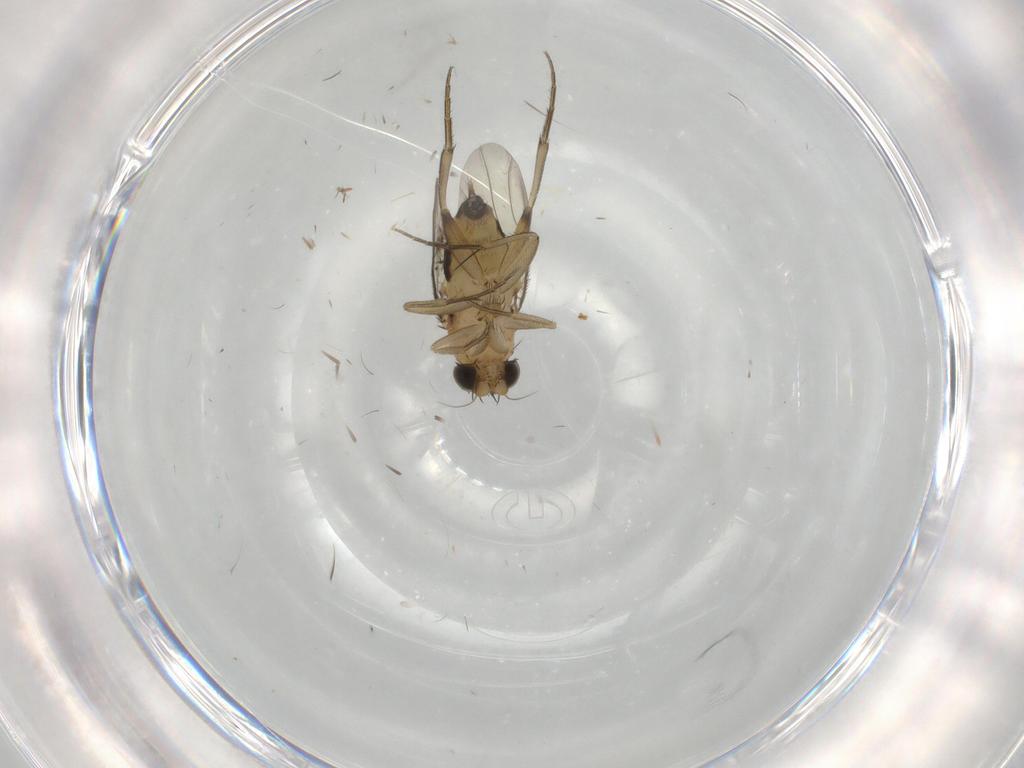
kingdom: Animalia
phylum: Arthropoda
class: Insecta
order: Diptera
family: Phoridae
